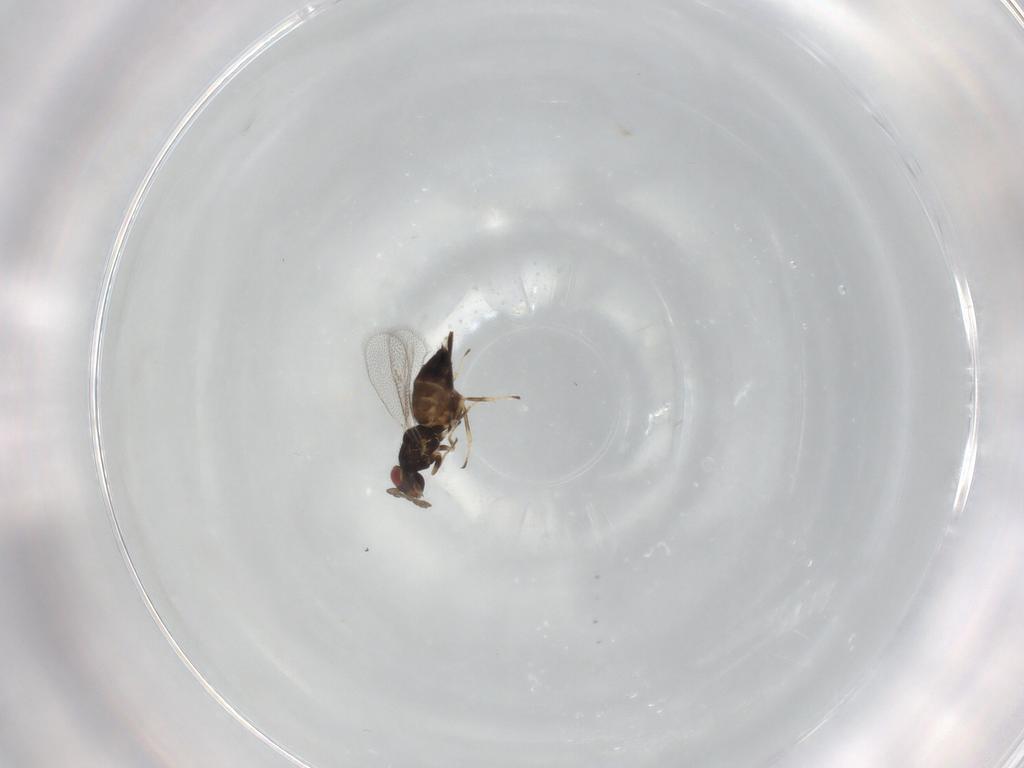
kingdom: Animalia
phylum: Arthropoda
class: Insecta
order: Hymenoptera
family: Eulophidae
